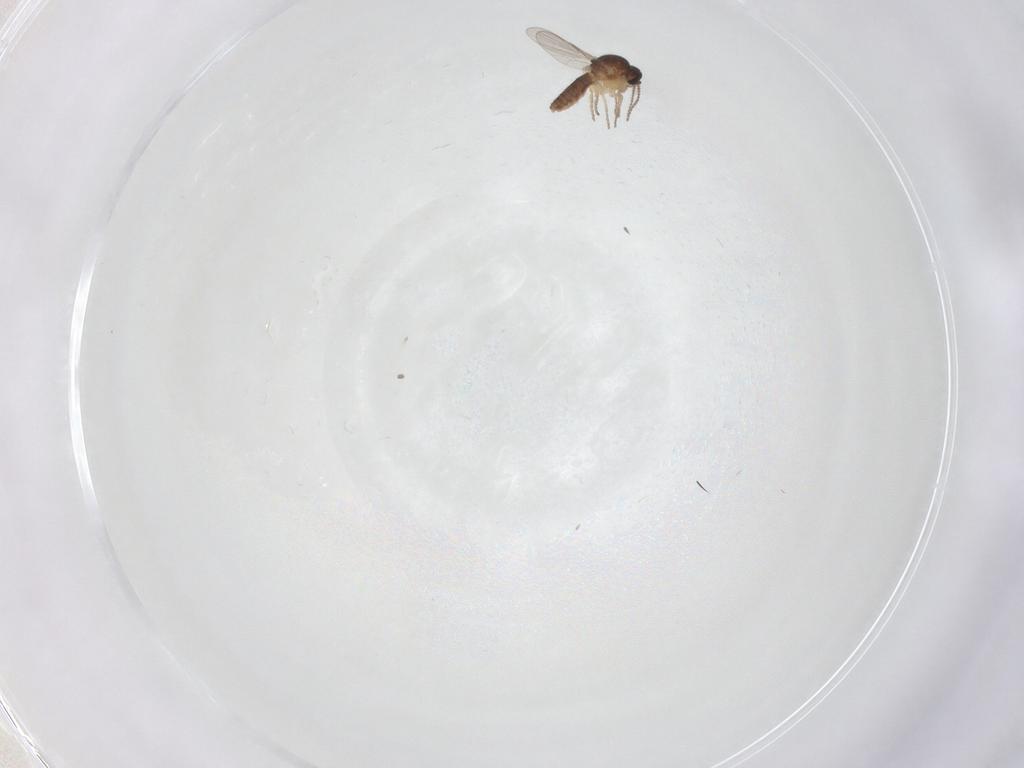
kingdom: Animalia
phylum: Arthropoda
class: Insecta
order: Diptera
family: Ceratopogonidae
